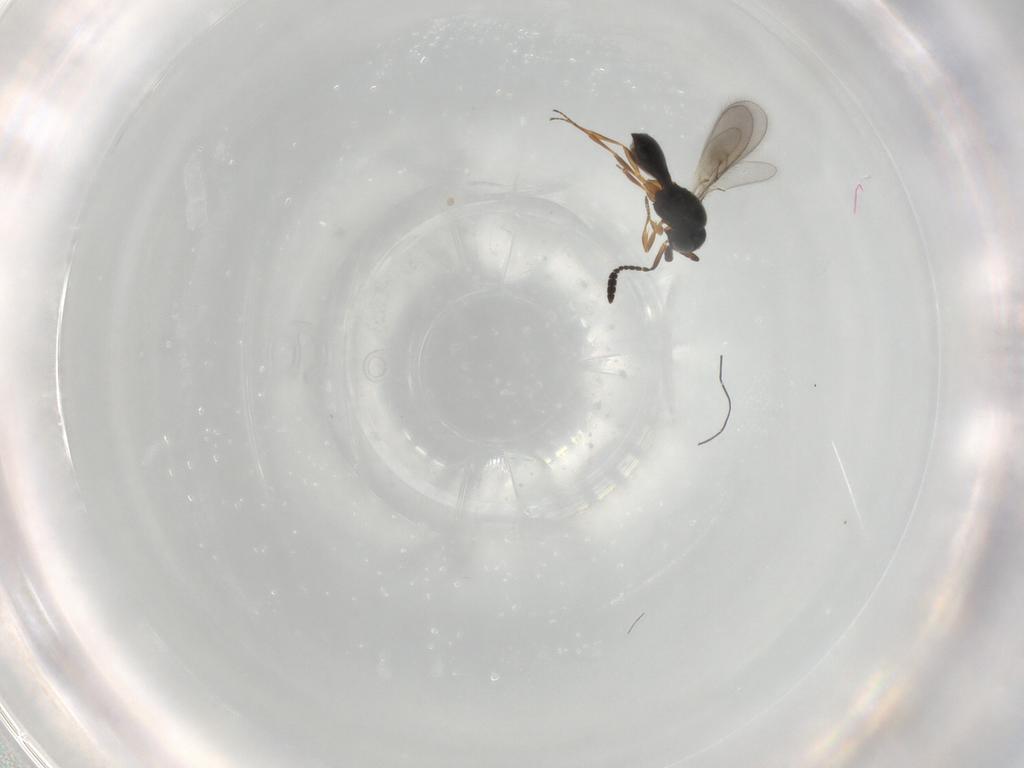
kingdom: Animalia
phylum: Arthropoda
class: Insecta
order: Hymenoptera
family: Scelionidae
